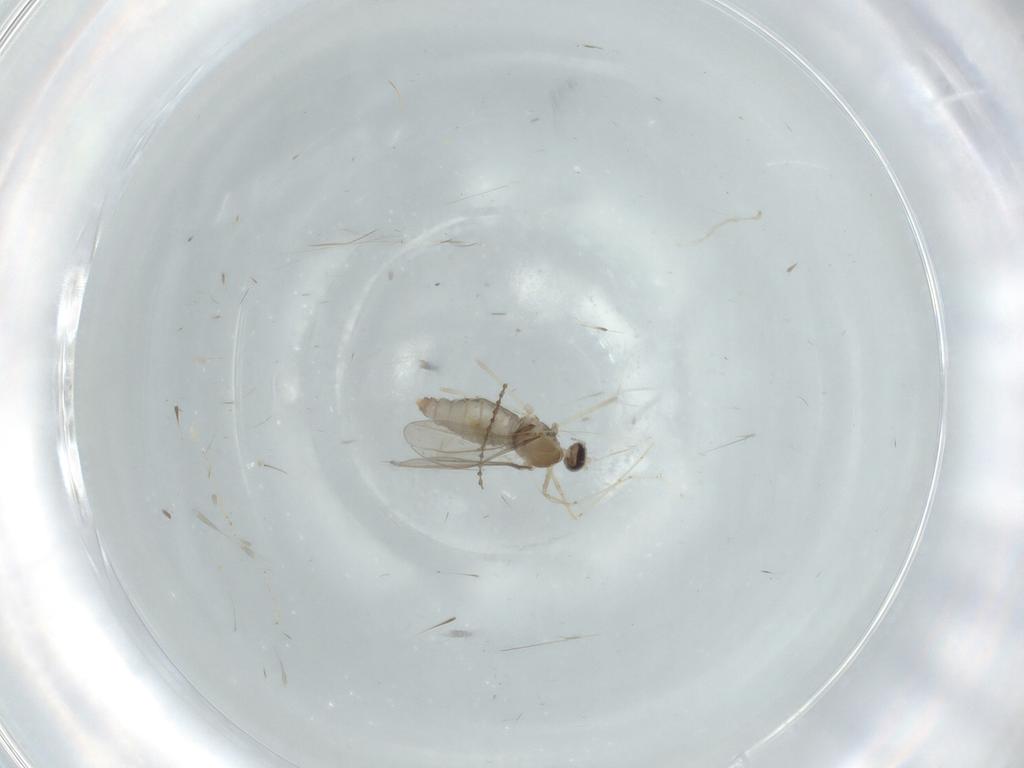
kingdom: Animalia
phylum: Arthropoda
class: Insecta
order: Diptera
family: Cecidomyiidae
